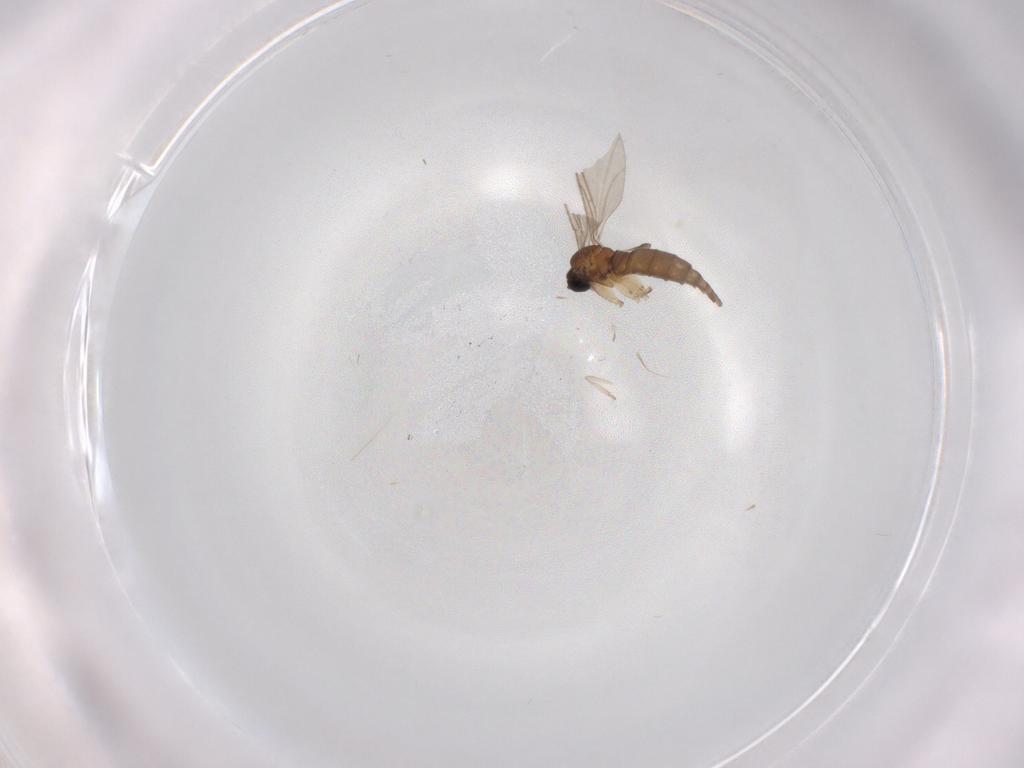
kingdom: Animalia
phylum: Arthropoda
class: Insecta
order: Diptera
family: Sciaridae
